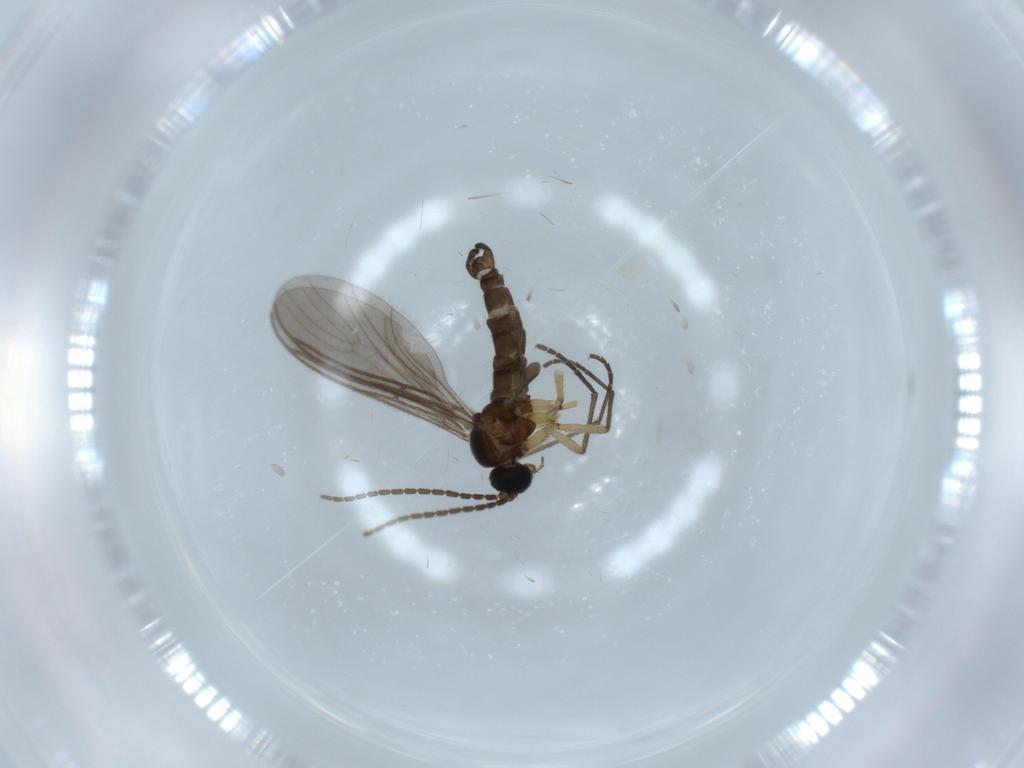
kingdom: Animalia
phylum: Arthropoda
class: Insecta
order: Diptera
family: Sciaridae
